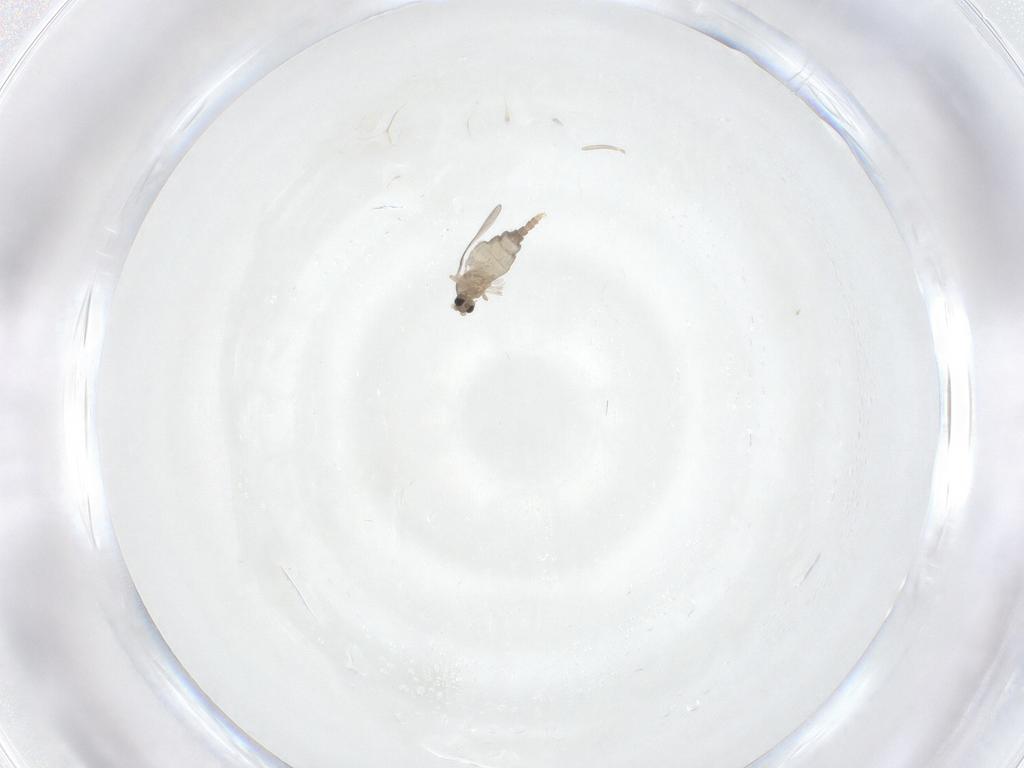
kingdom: Animalia
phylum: Arthropoda
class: Insecta
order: Diptera
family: Cecidomyiidae
